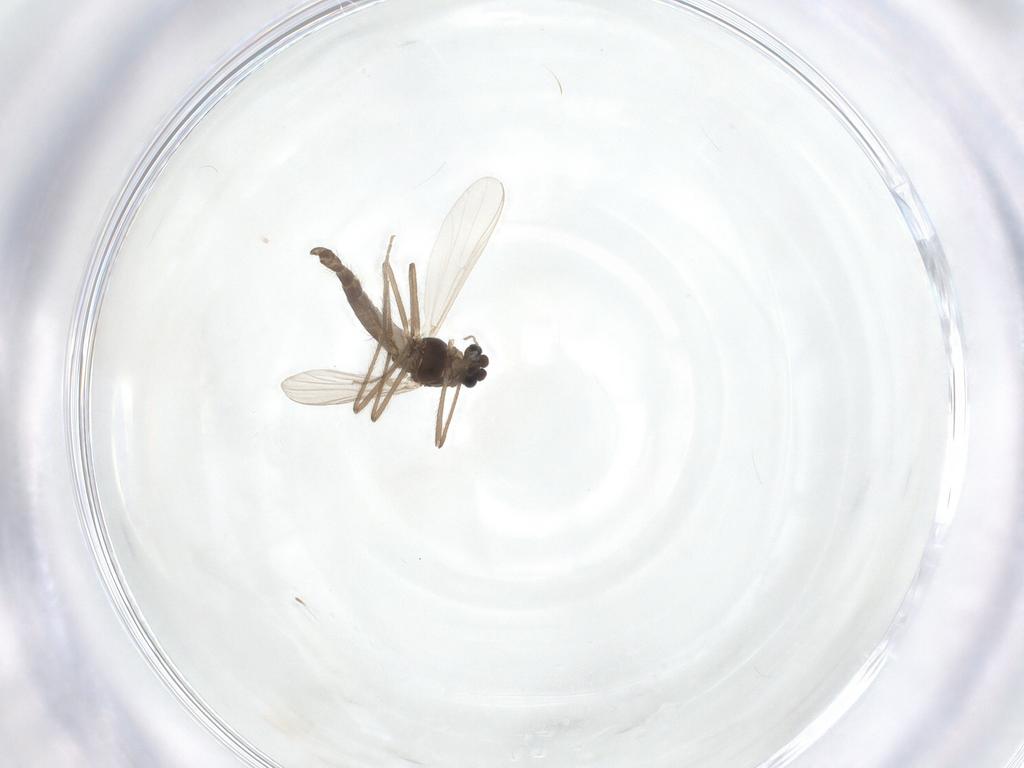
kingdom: Animalia
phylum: Arthropoda
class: Insecta
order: Diptera
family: Chironomidae
